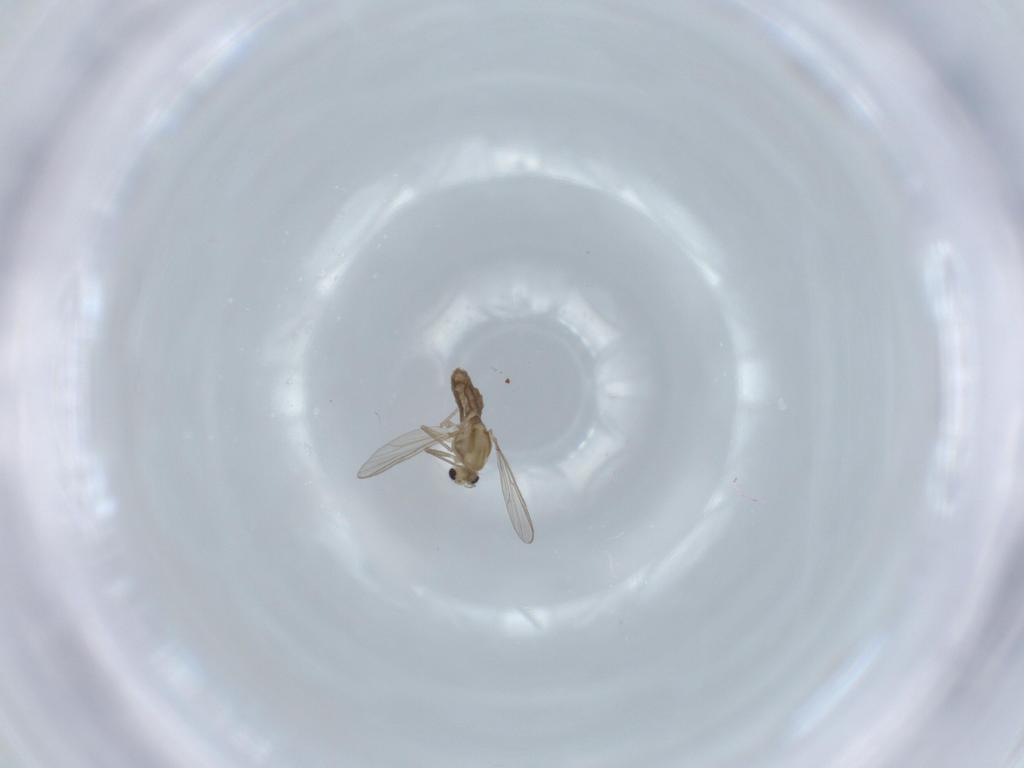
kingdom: Animalia
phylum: Arthropoda
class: Insecta
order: Diptera
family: Chironomidae
